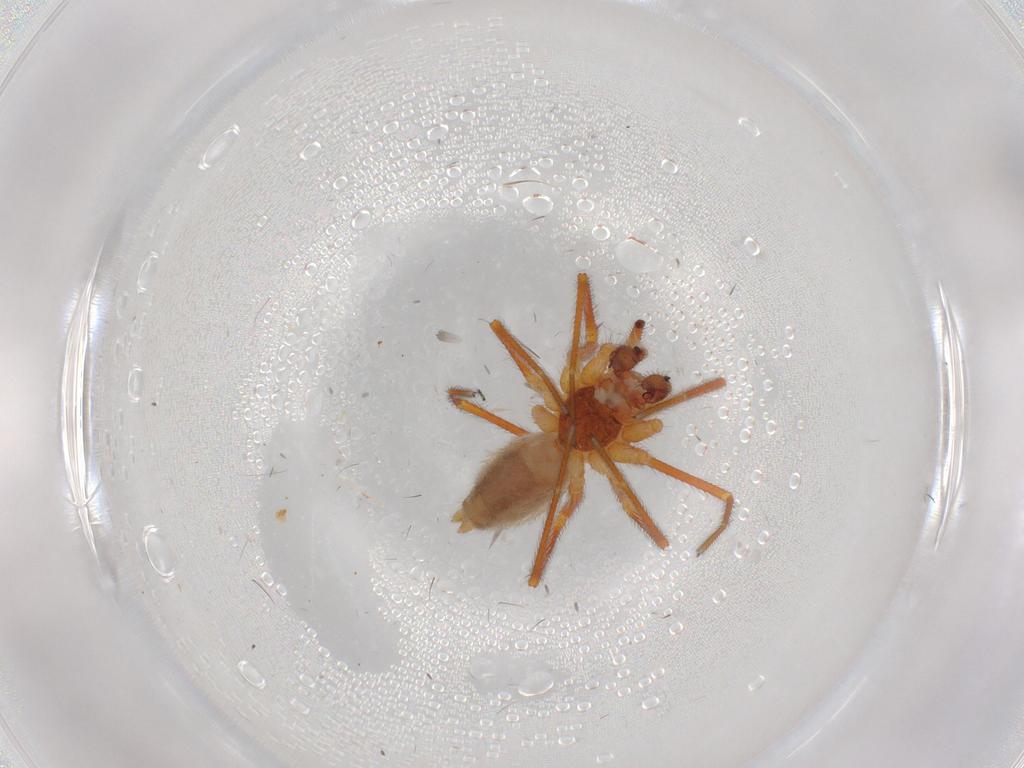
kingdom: Animalia
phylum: Arthropoda
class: Arachnida
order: Araneae
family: Linyphiidae
